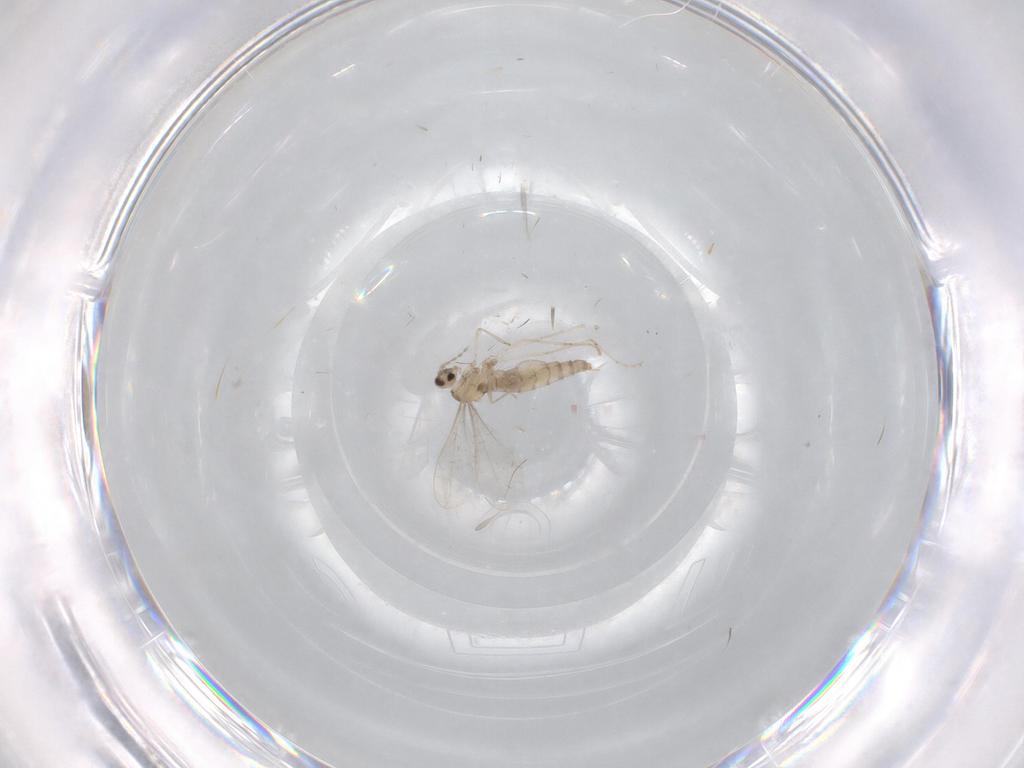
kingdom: Animalia
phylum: Arthropoda
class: Insecta
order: Diptera
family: Cecidomyiidae
